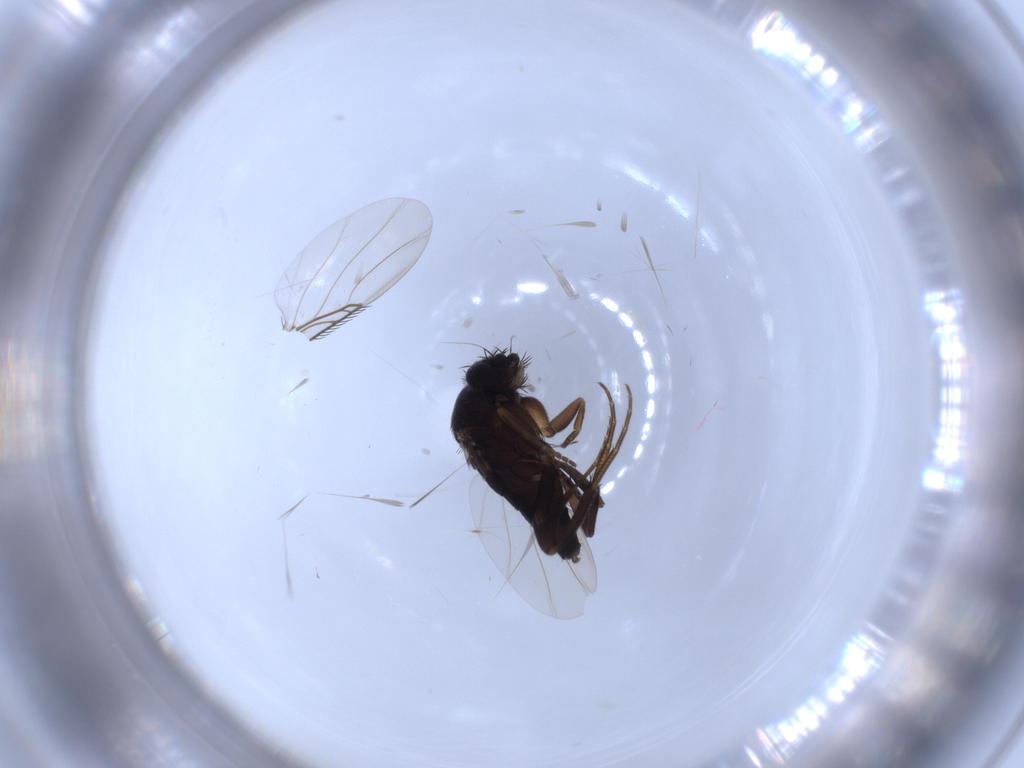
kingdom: Animalia
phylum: Arthropoda
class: Insecta
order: Diptera
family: Phoridae
